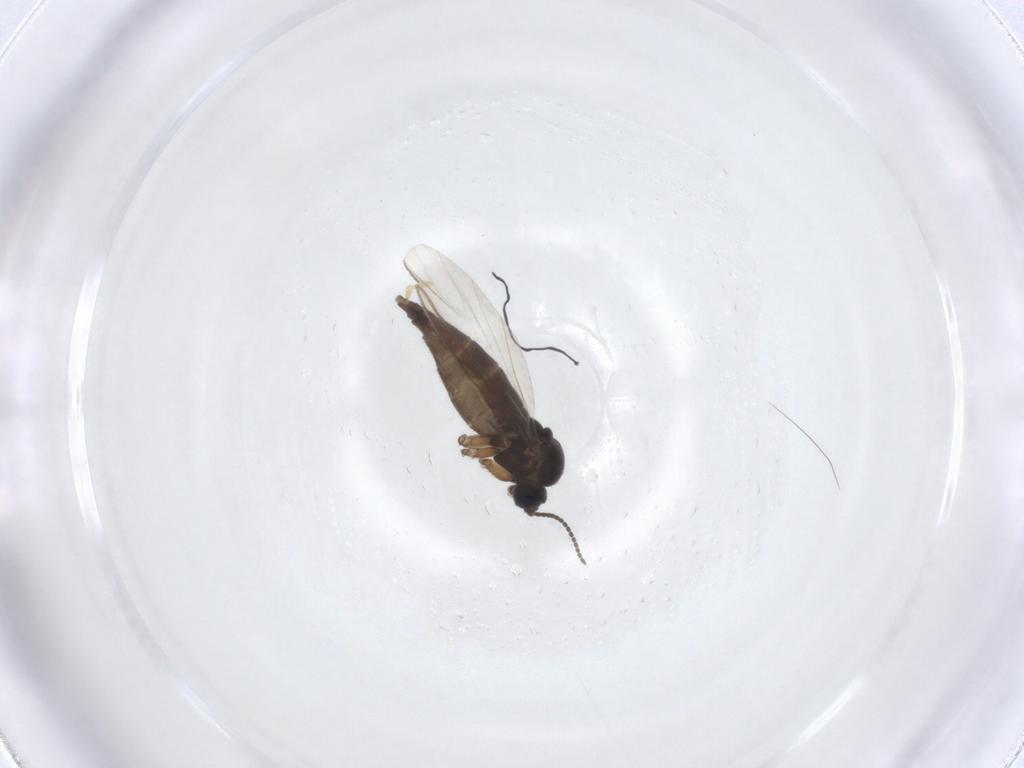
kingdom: Animalia
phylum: Arthropoda
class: Insecta
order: Diptera
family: Sciaridae
